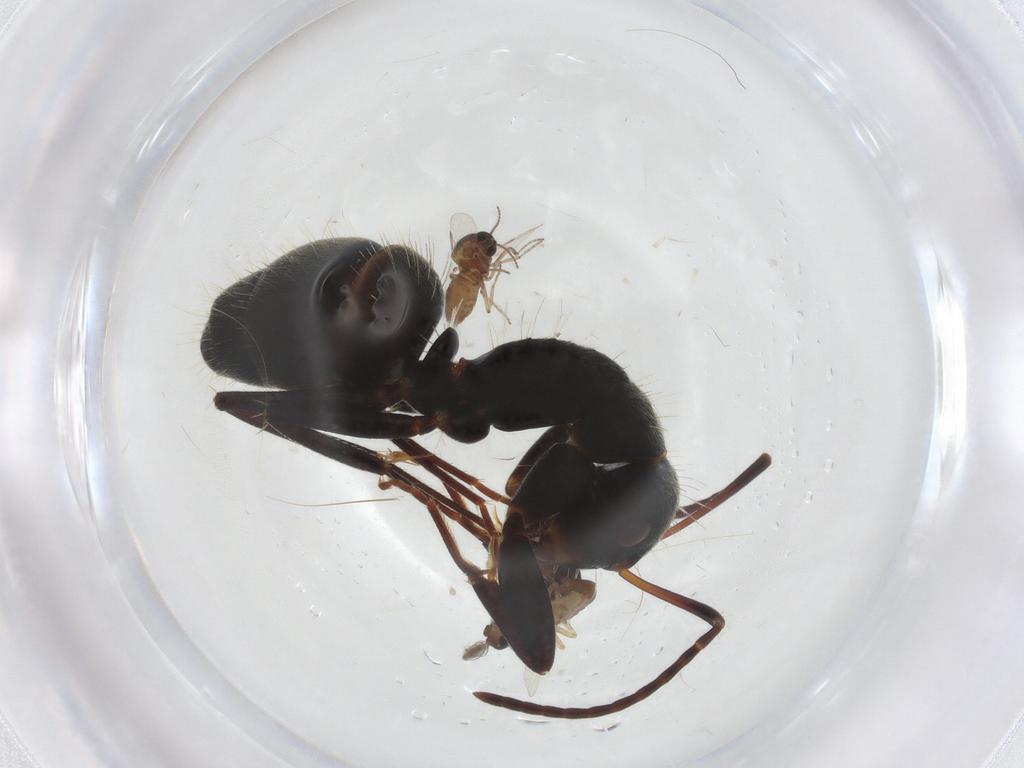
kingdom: Animalia
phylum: Arthropoda
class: Insecta
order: Diptera
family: Ceratopogonidae
